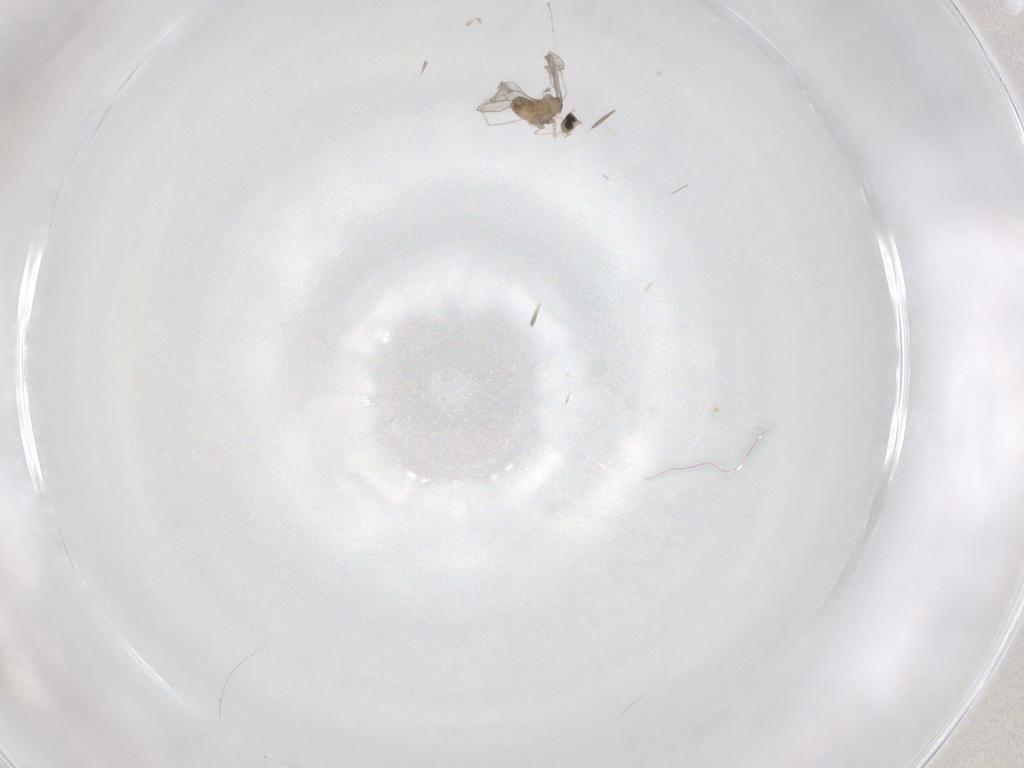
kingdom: Animalia
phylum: Arthropoda
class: Insecta
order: Diptera
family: Cecidomyiidae
